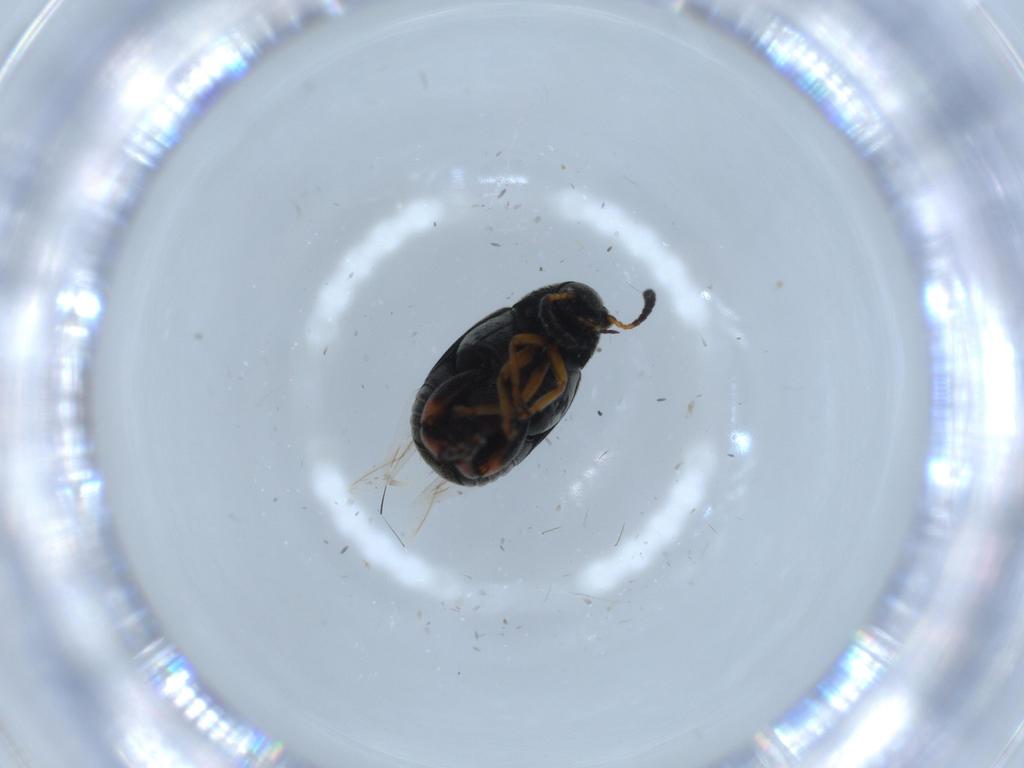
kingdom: Animalia
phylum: Arthropoda
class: Insecta
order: Coleoptera
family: Chrysomelidae
